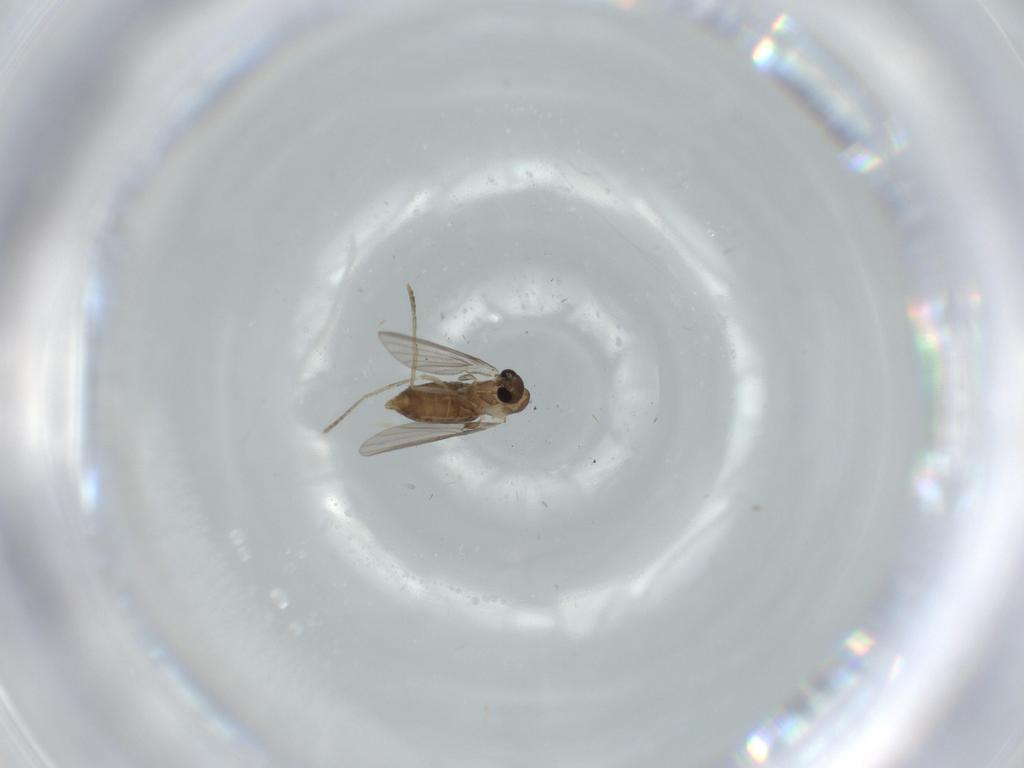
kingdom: Animalia
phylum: Arthropoda
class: Insecta
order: Diptera
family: Psychodidae
